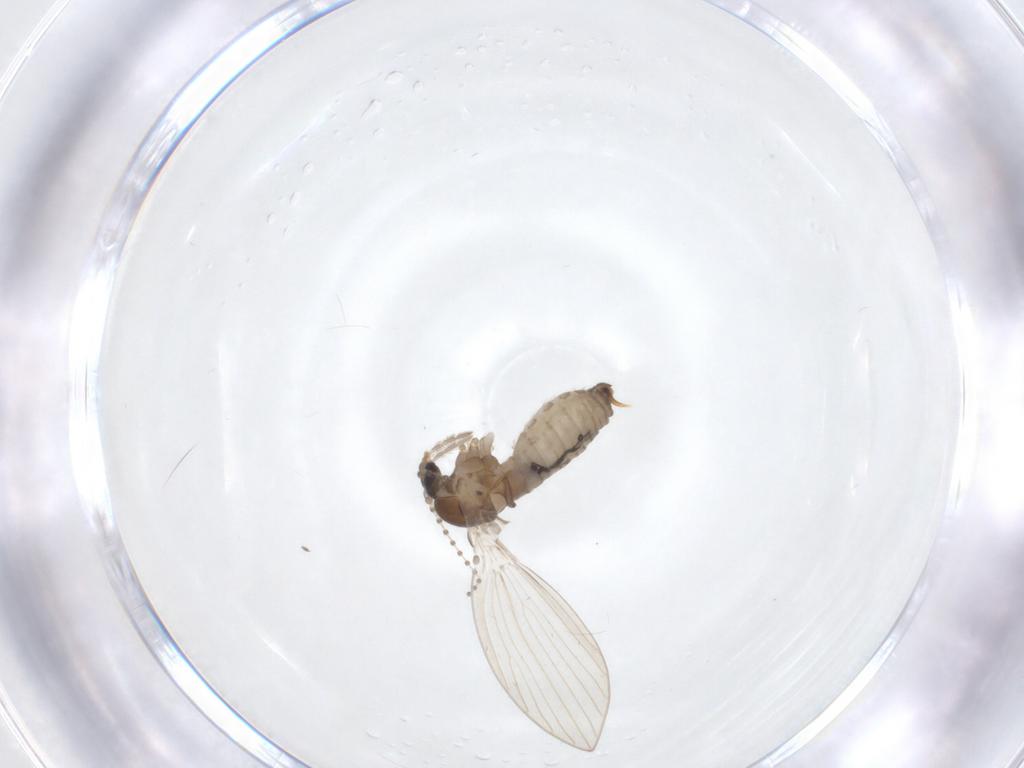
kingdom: Animalia
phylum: Arthropoda
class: Insecta
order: Diptera
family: Psychodidae
